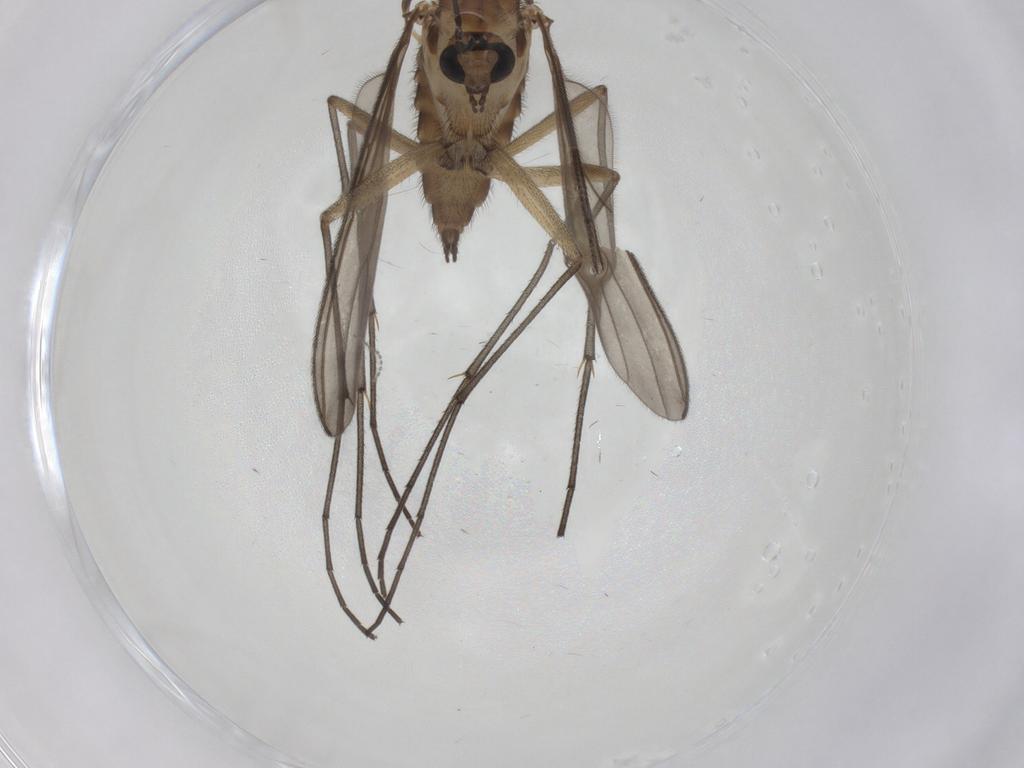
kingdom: Animalia
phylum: Arthropoda
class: Insecta
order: Diptera
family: Sciaridae
